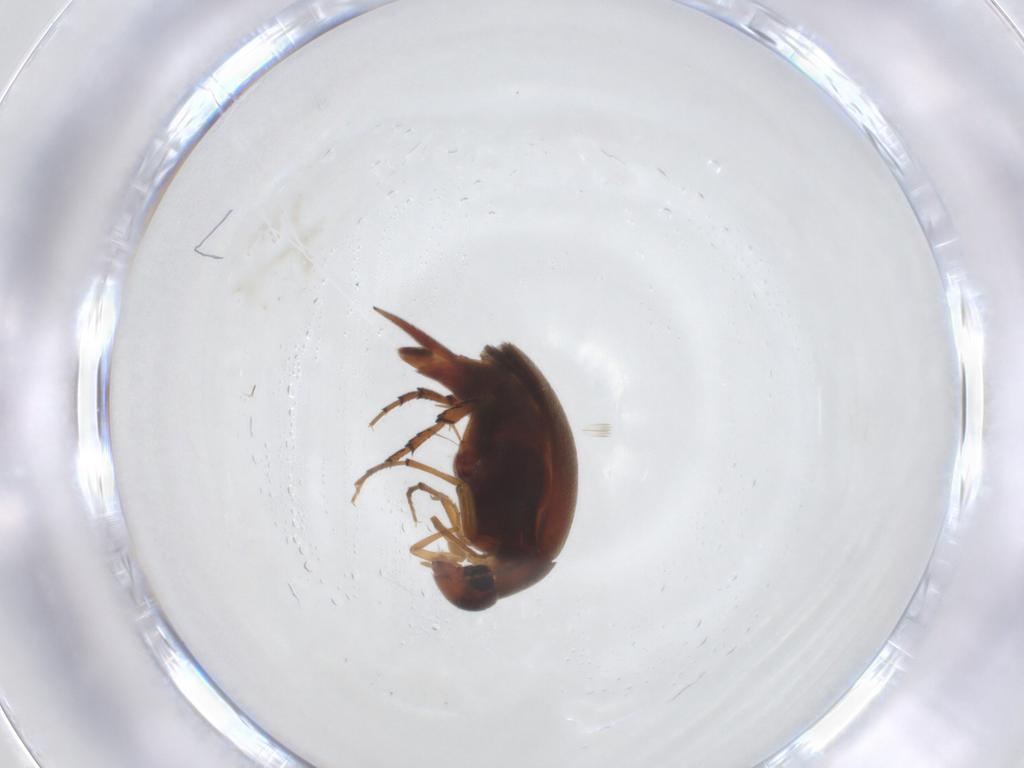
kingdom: Animalia
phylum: Arthropoda
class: Insecta
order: Coleoptera
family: Mordellidae
